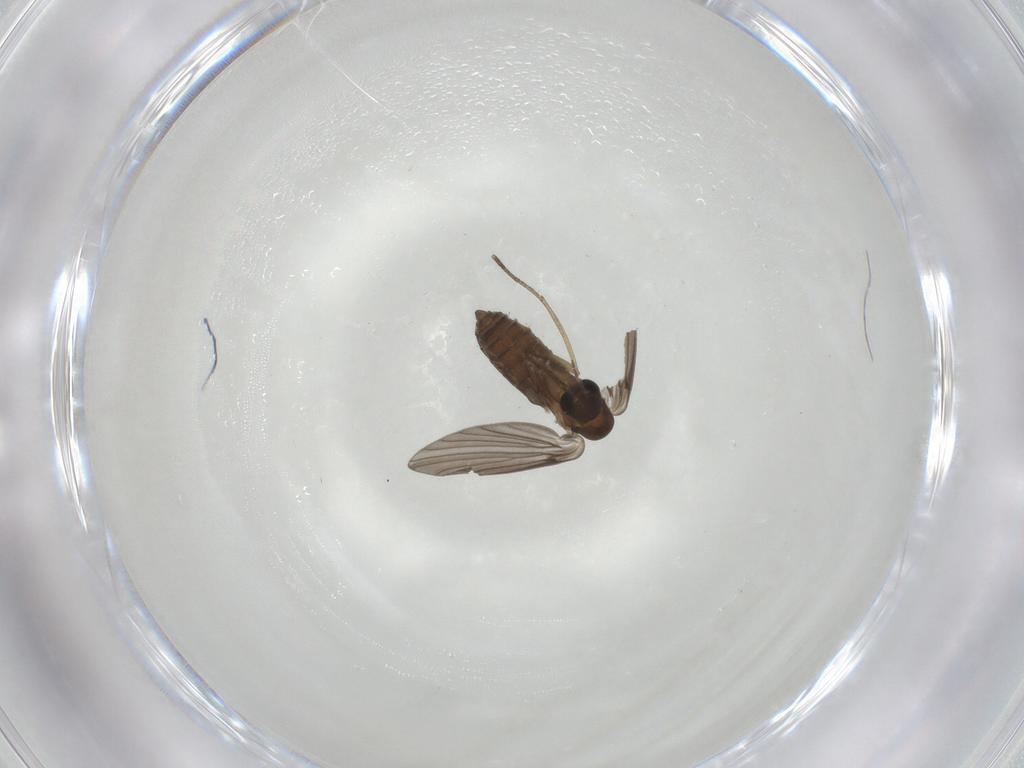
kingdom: Animalia
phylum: Arthropoda
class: Insecta
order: Diptera
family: Psychodidae
